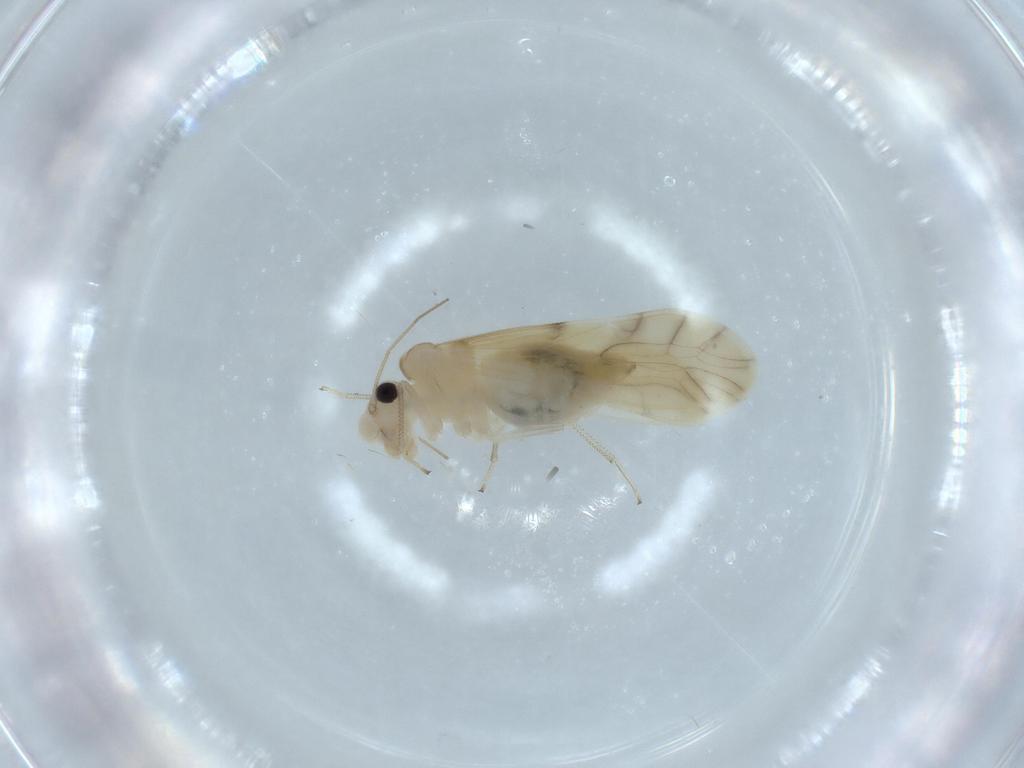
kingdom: Animalia
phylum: Arthropoda
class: Insecta
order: Psocodea
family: Caeciliusidae
